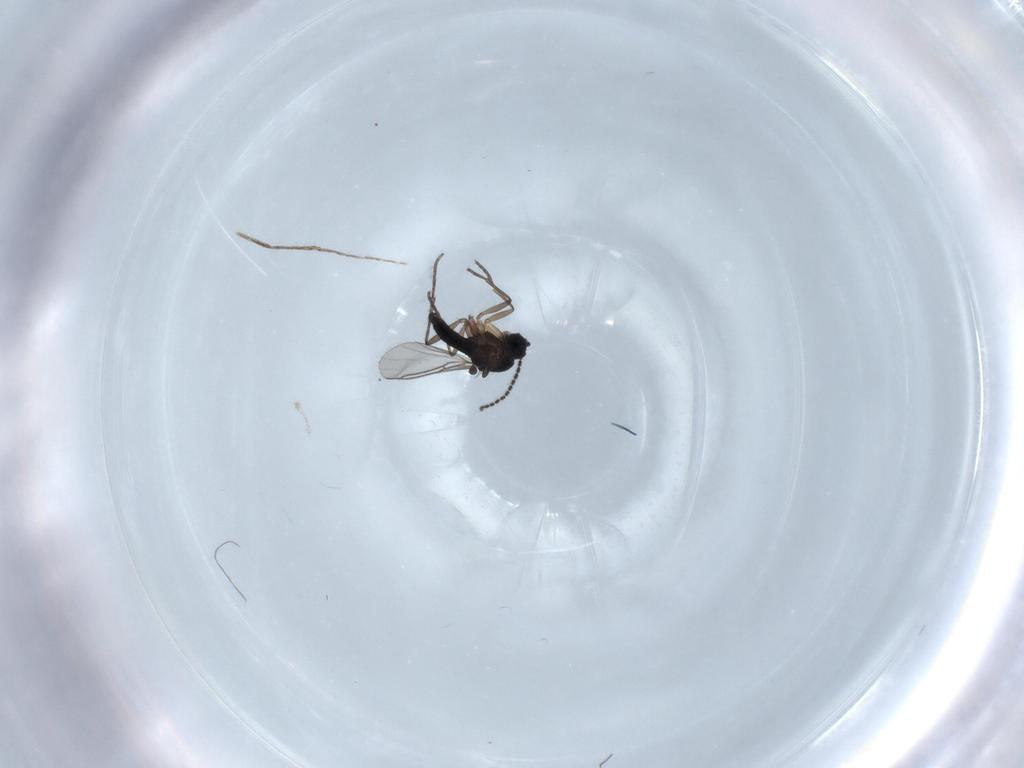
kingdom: Animalia
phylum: Arthropoda
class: Insecta
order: Diptera
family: Cecidomyiidae
